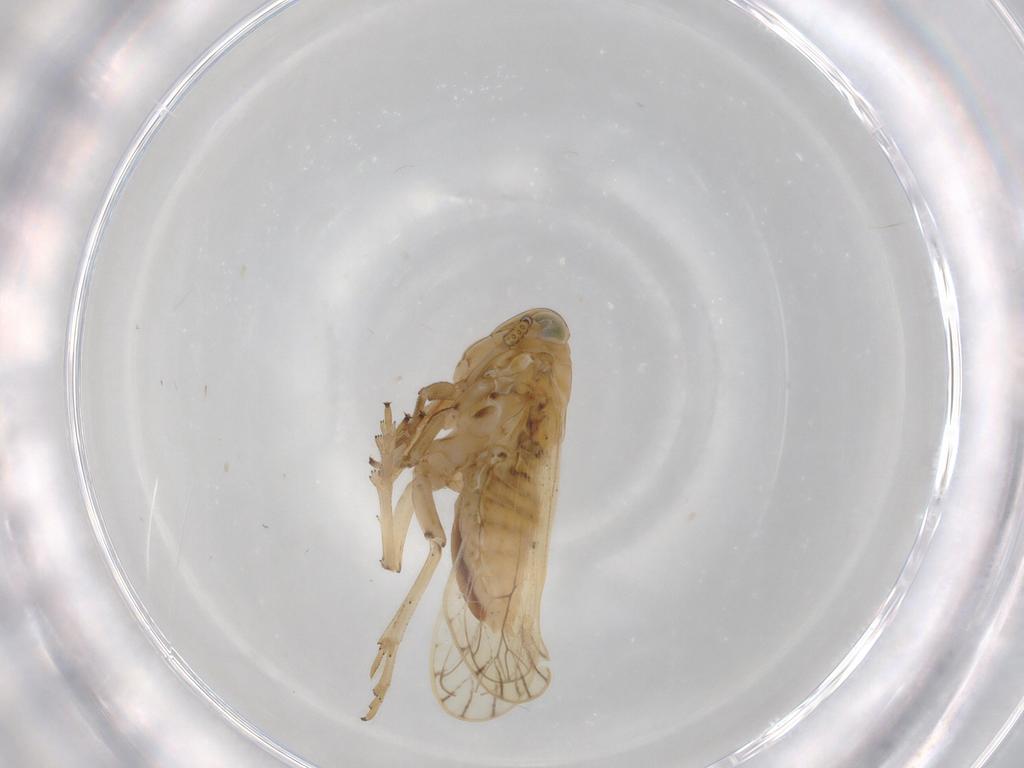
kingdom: Animalia
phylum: Arthropoda
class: Insecta
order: Hemiptera
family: Delphacidae
